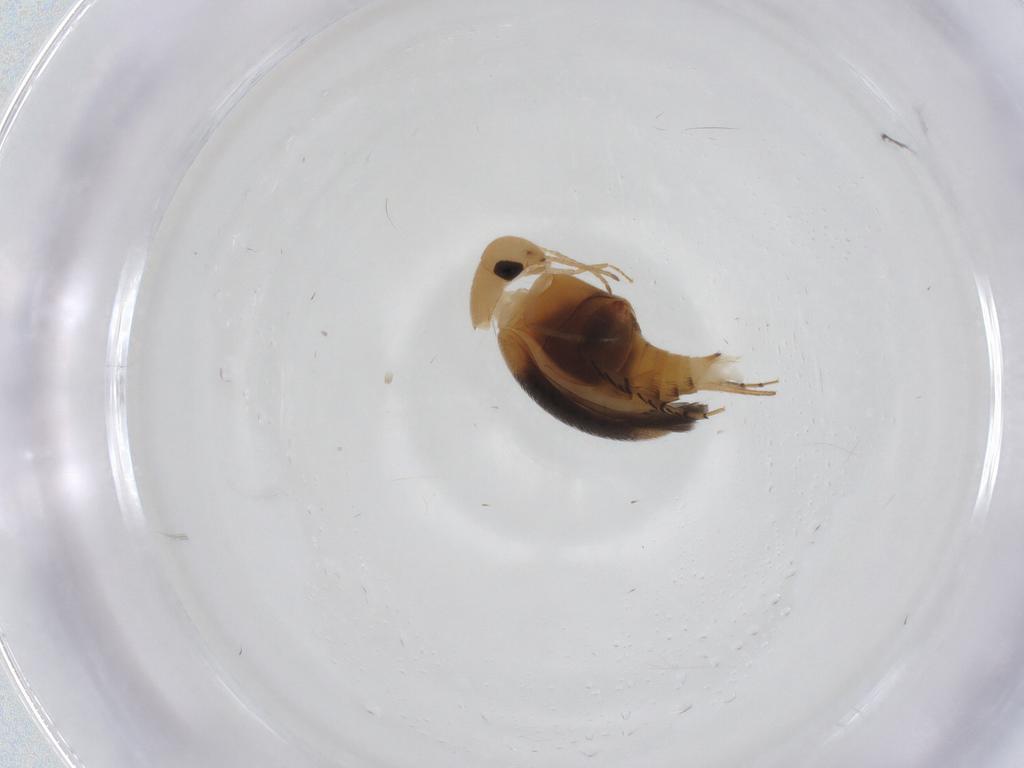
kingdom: Animalia
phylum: Arthropoda
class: Insecta
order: Coleoptera
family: Mordellidae
